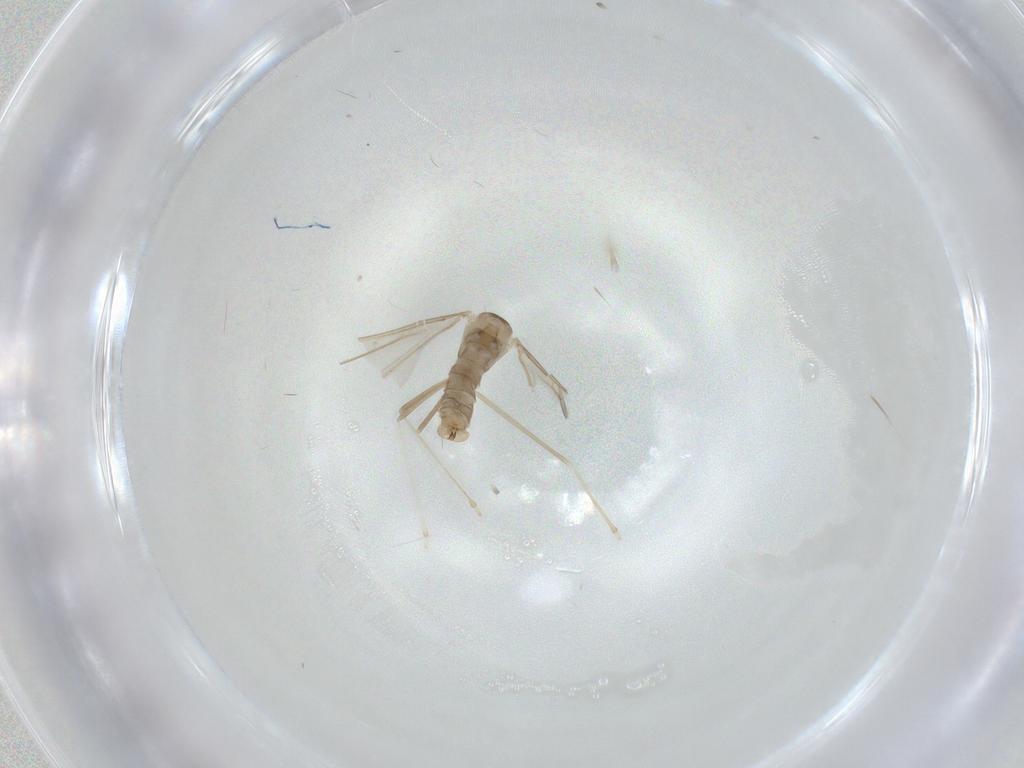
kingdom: Animalia
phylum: Arthropoda
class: Insecta
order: Diptera
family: Cecidomyiidae
